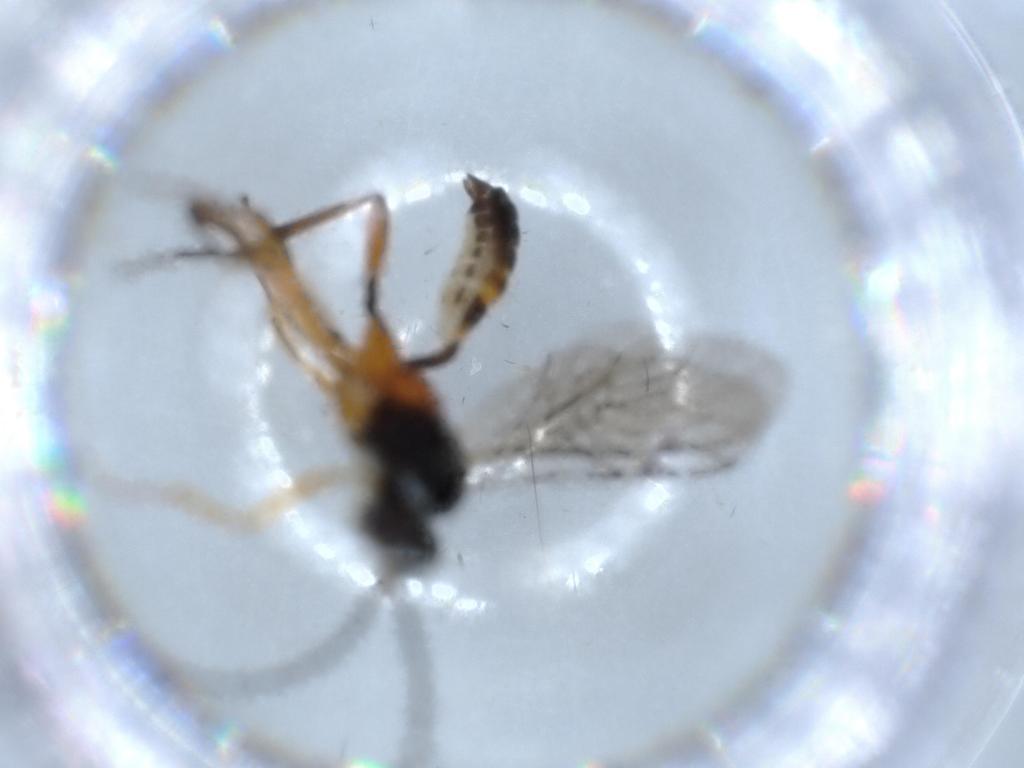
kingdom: Animalia
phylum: Arthropoda
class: Insecta
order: Hymenoptera
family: Ichneumonidae
